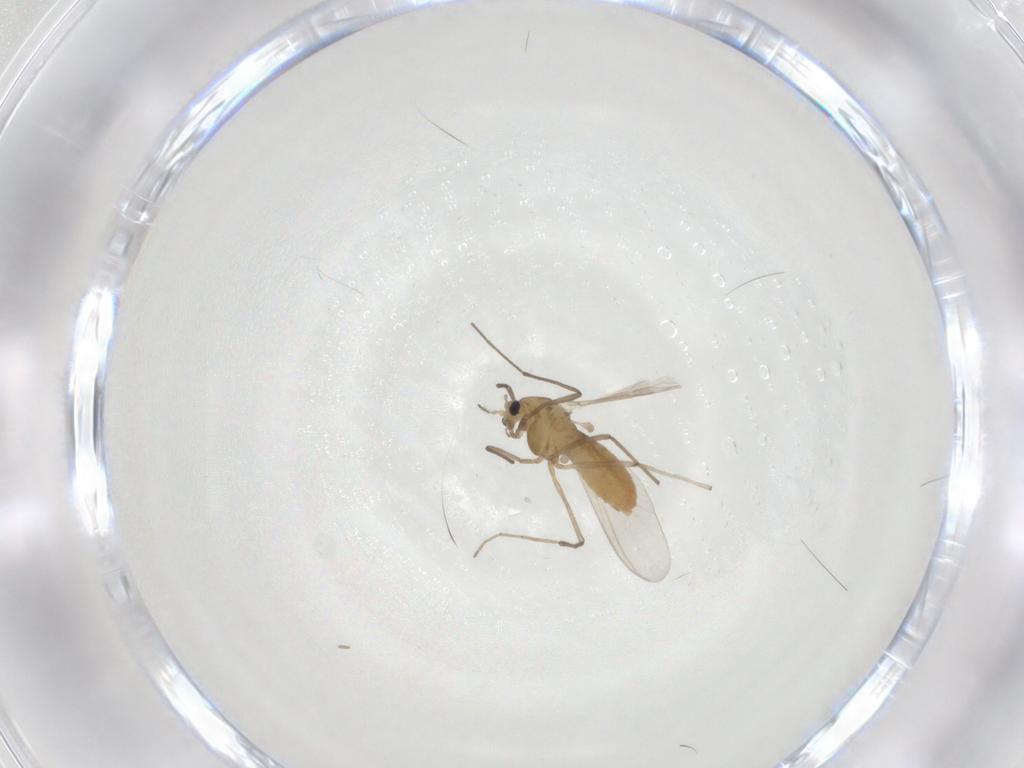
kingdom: Animalia
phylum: Arthropoda
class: Insecta
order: Diptera
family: Chironomidae
